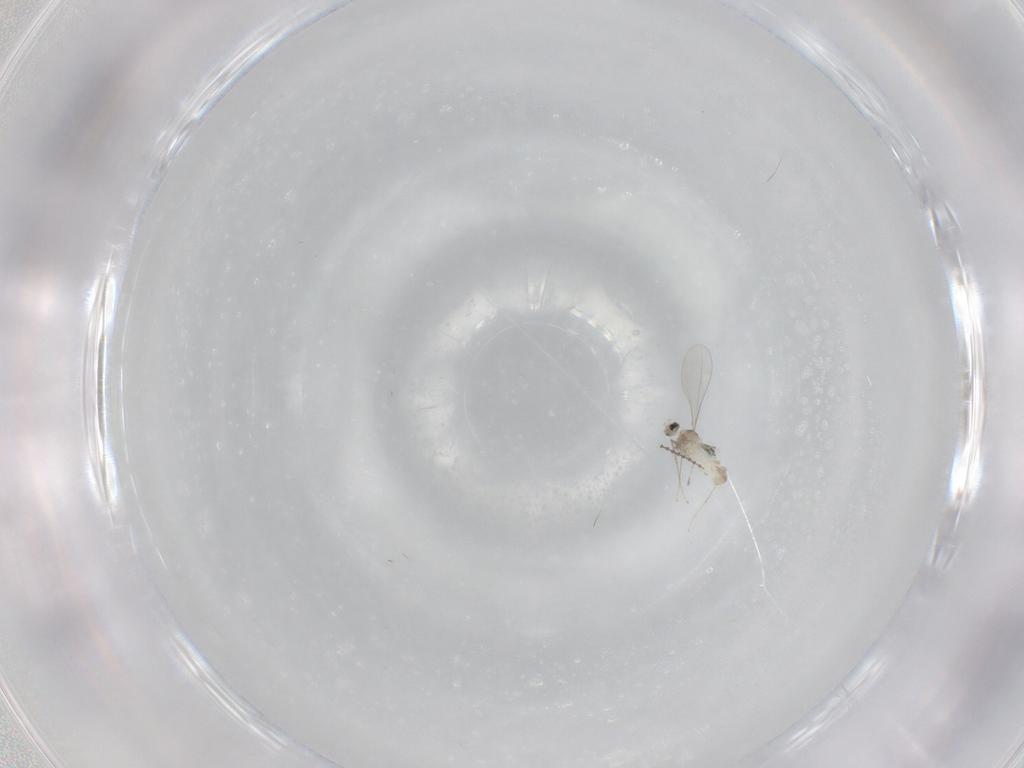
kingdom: Animalia
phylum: Arthropoda
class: Insecta
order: Diptera
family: Cecidomyiidae
